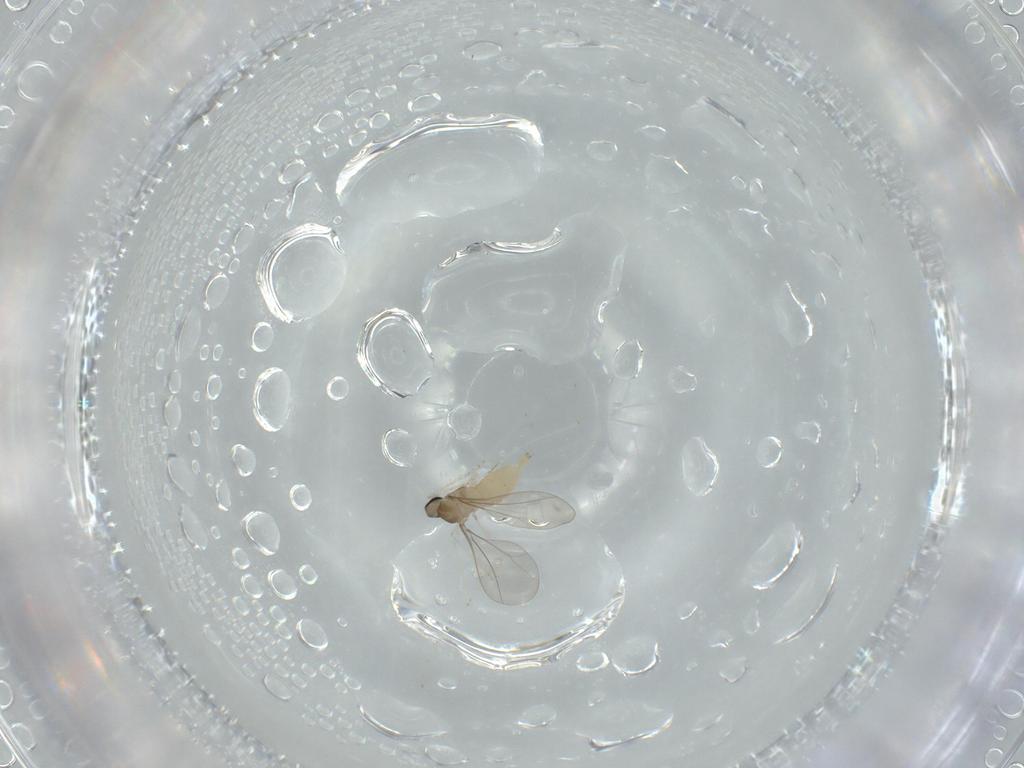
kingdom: Animalia
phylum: Arthropoda
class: Insecta
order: Diptera
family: Cecidomyiidae
